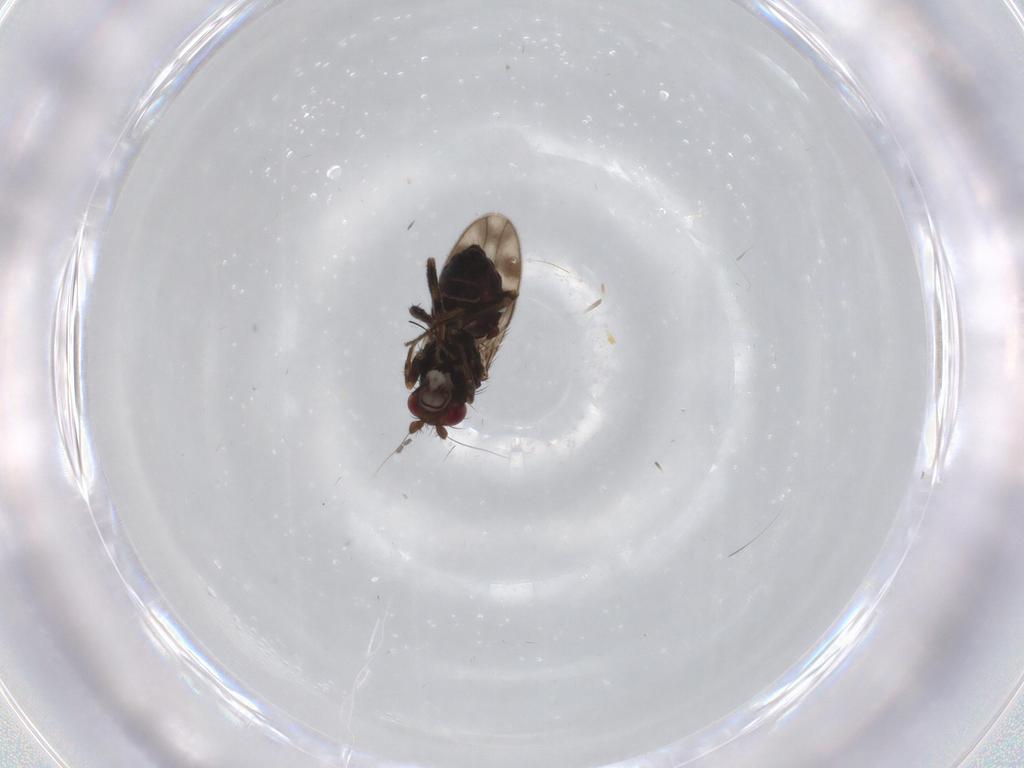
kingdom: Animalia
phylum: Arthropoda
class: Insecta
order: Diptera
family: Sphaeroceridae
